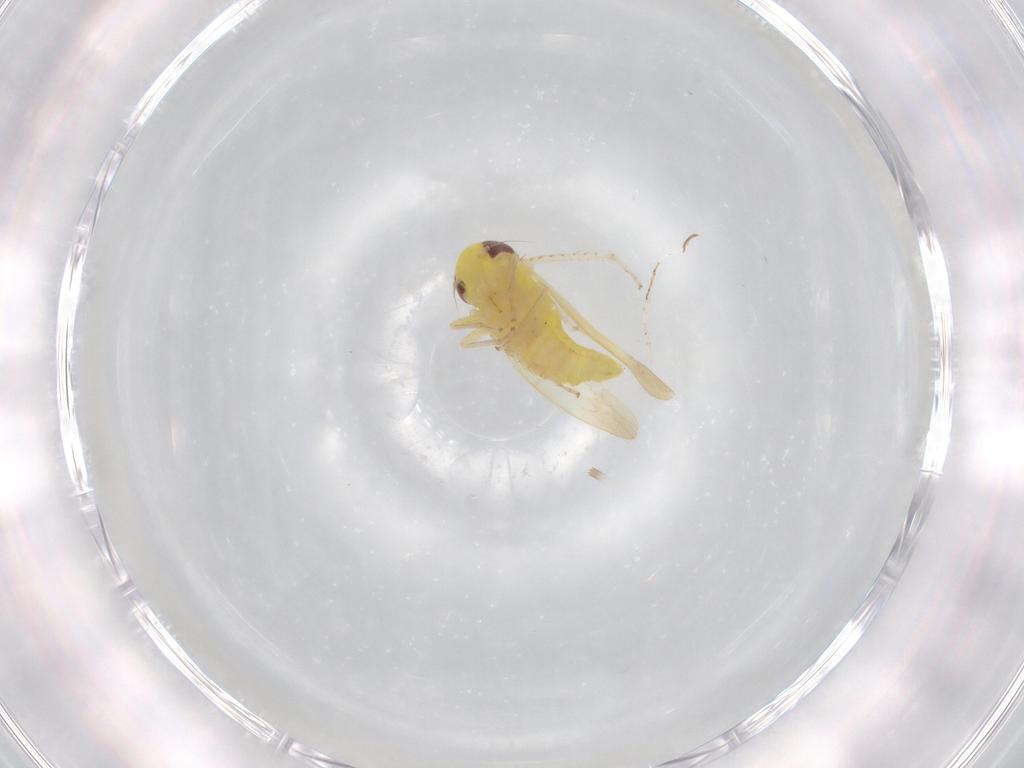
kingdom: Animalia
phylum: Arthropoda
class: Insecta
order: Hemiptera
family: Cicadellidae
